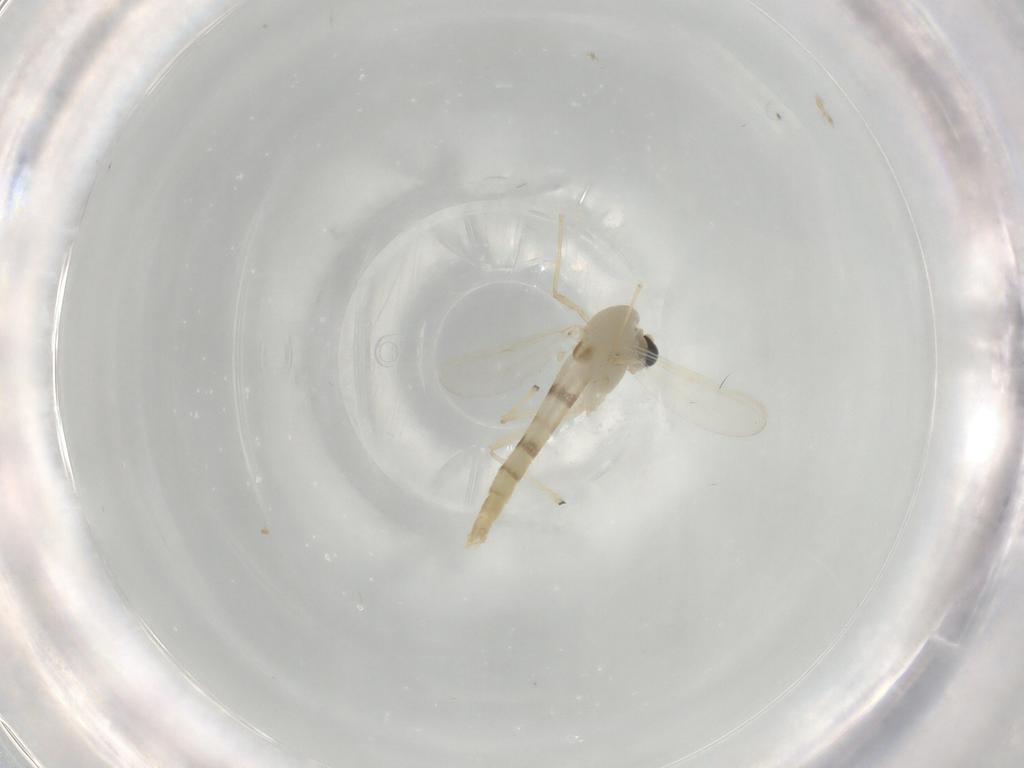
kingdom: Animalia
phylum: Arthropoda
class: Insecta
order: Diptera
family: Chironomidae
